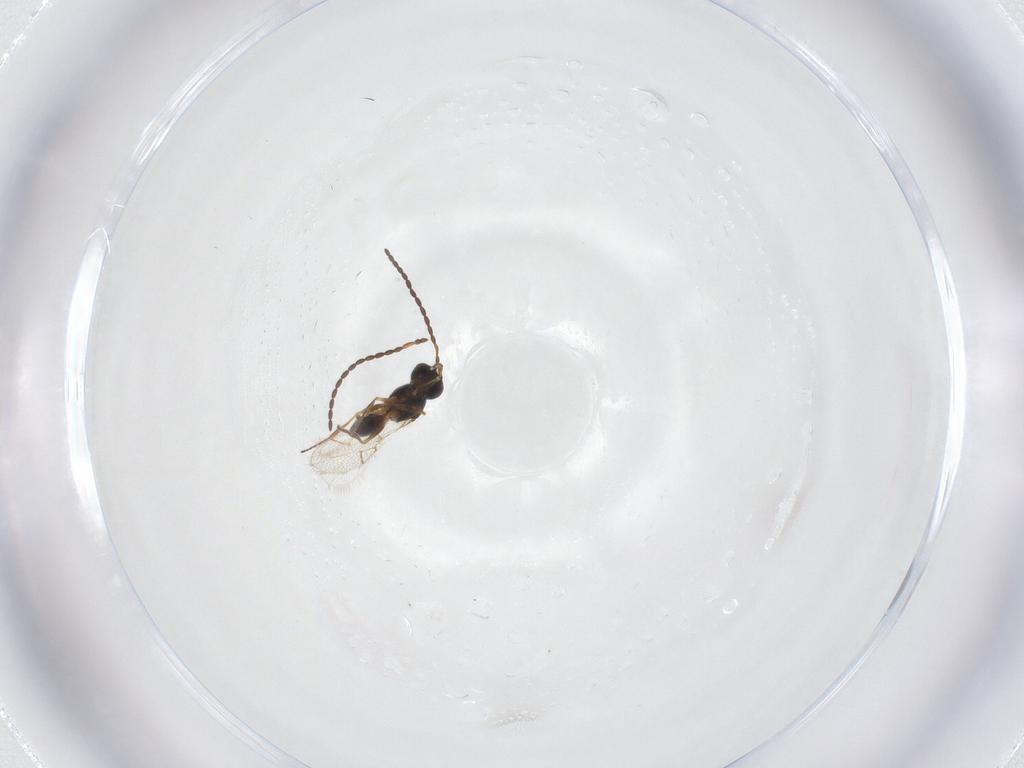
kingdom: Animalia
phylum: Arthropoda
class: Insecta
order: Hymenoptera
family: Figitidae
